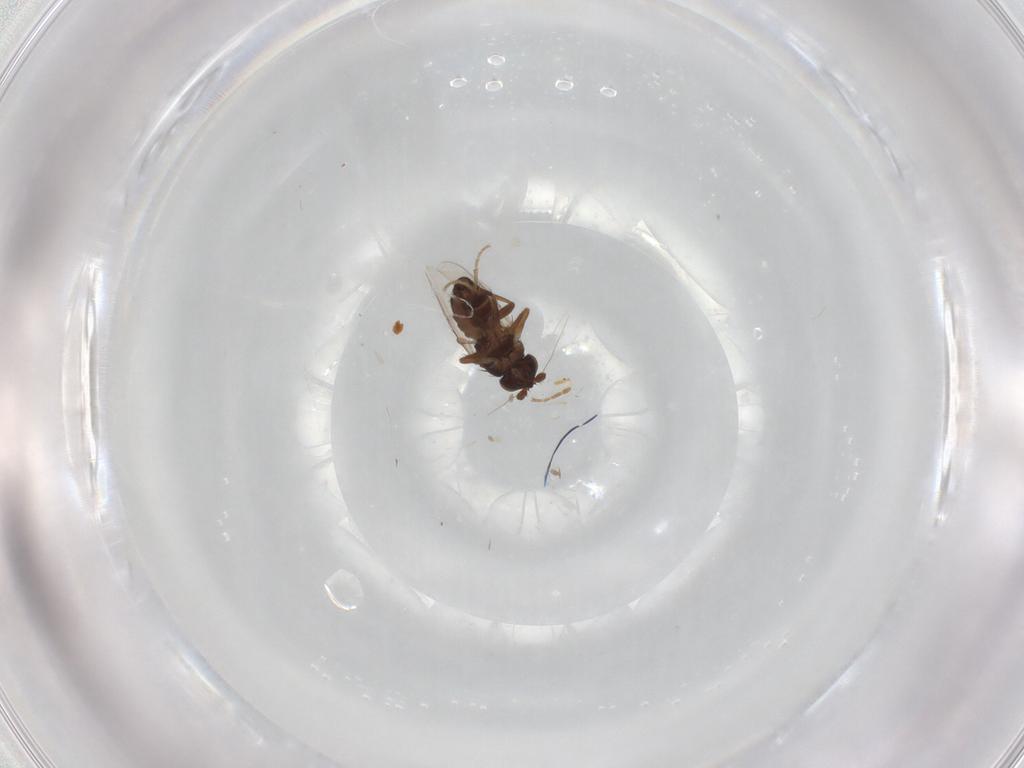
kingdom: Animalia
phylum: Arthropoda
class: Insecta
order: Diptera
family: Sphaeroceridae
